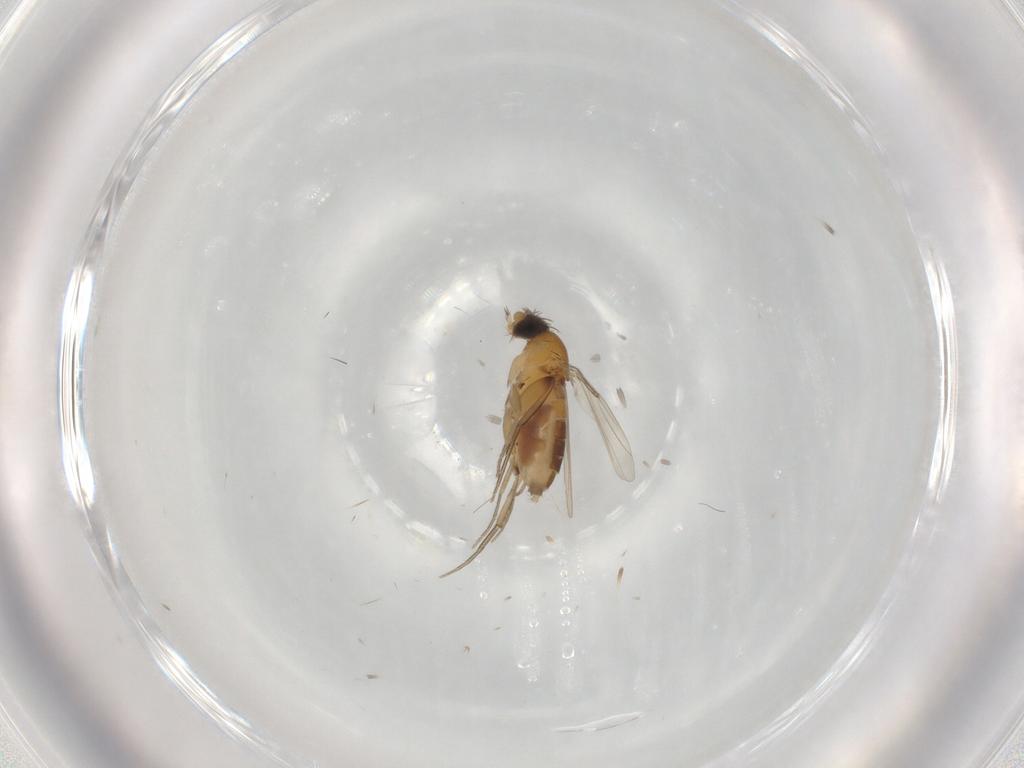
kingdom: Animalia
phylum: Arthropoda
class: Insecta
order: Diptera
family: Cecidomyiidae
